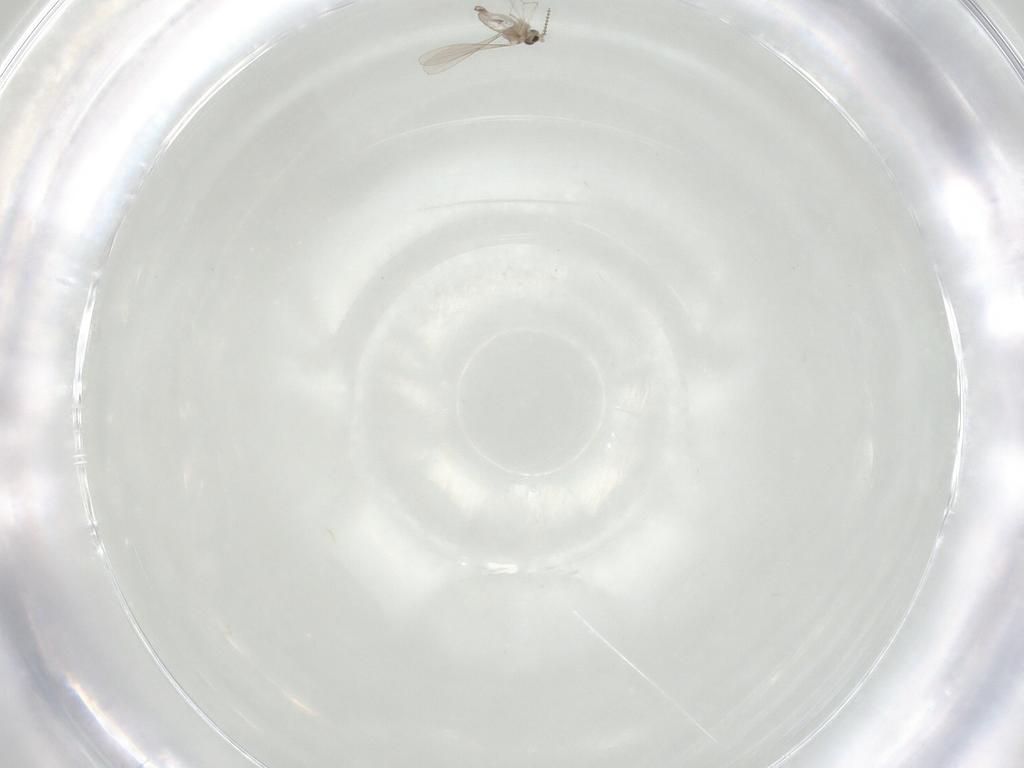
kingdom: Animalia
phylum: Arthropoda
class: Insecta
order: Diptera
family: Cecidomyiidae
